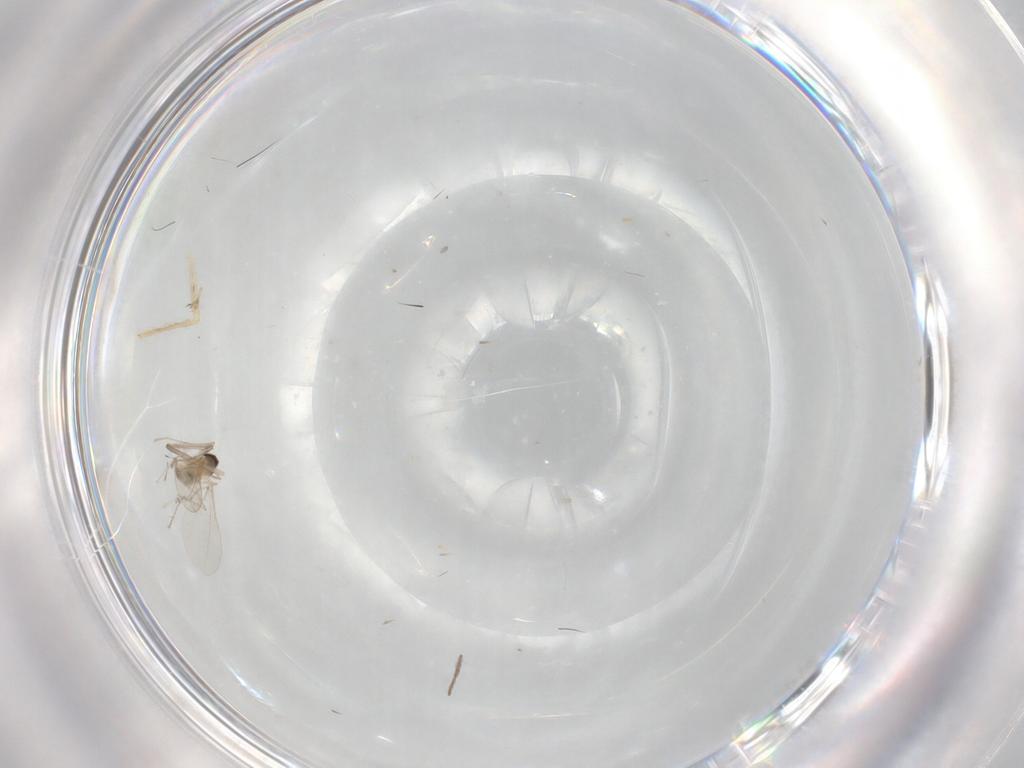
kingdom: Animalia
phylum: Arthropoda
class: Insecta
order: Diptera
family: Cecidomyiidae
